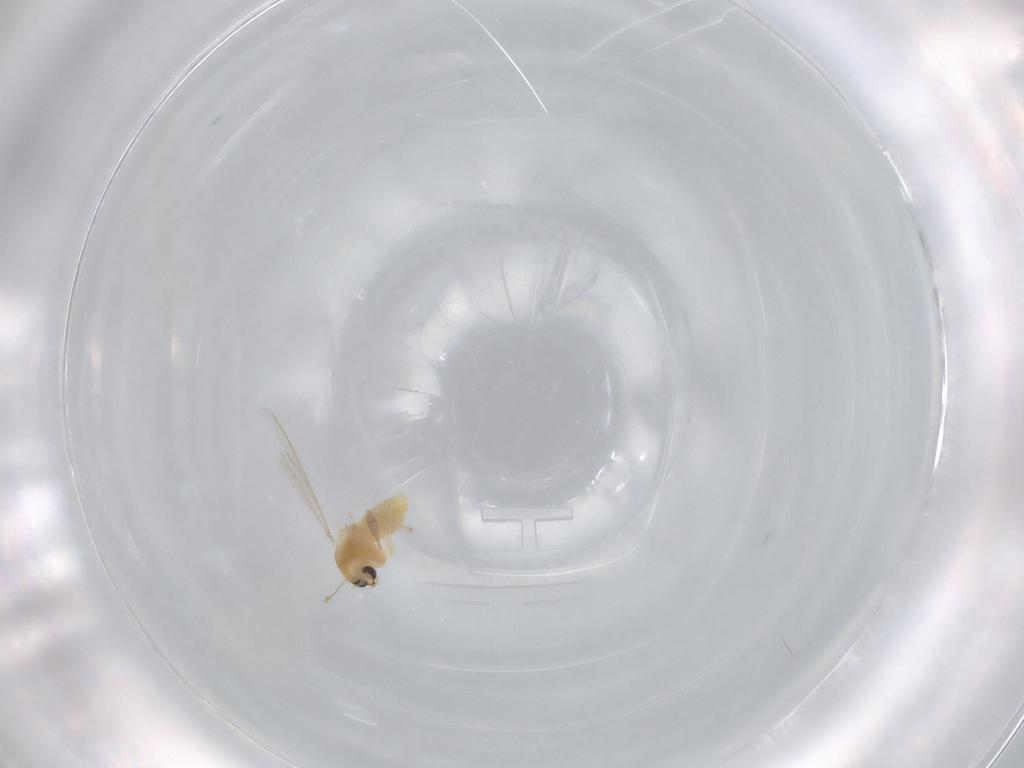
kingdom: Animalia
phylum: Arthropoda
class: Insecta
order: Diptera
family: Chironomidae
